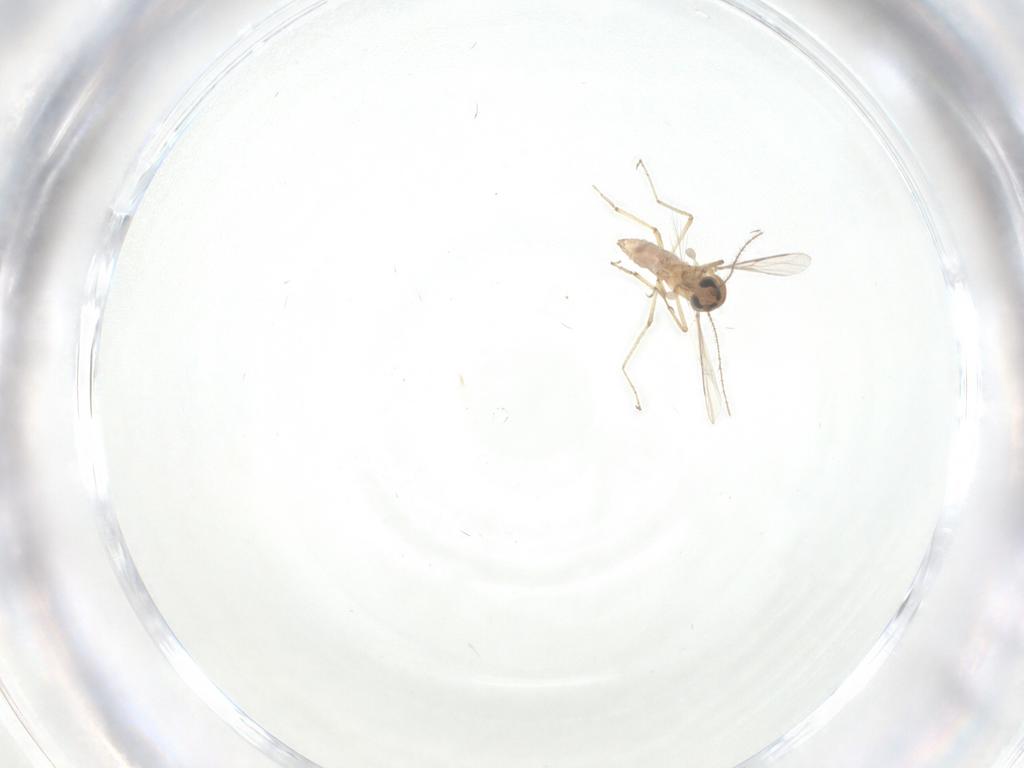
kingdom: Animalia
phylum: Arthropoda
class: Insecta
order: Diptera
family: Ceratopogonidae
